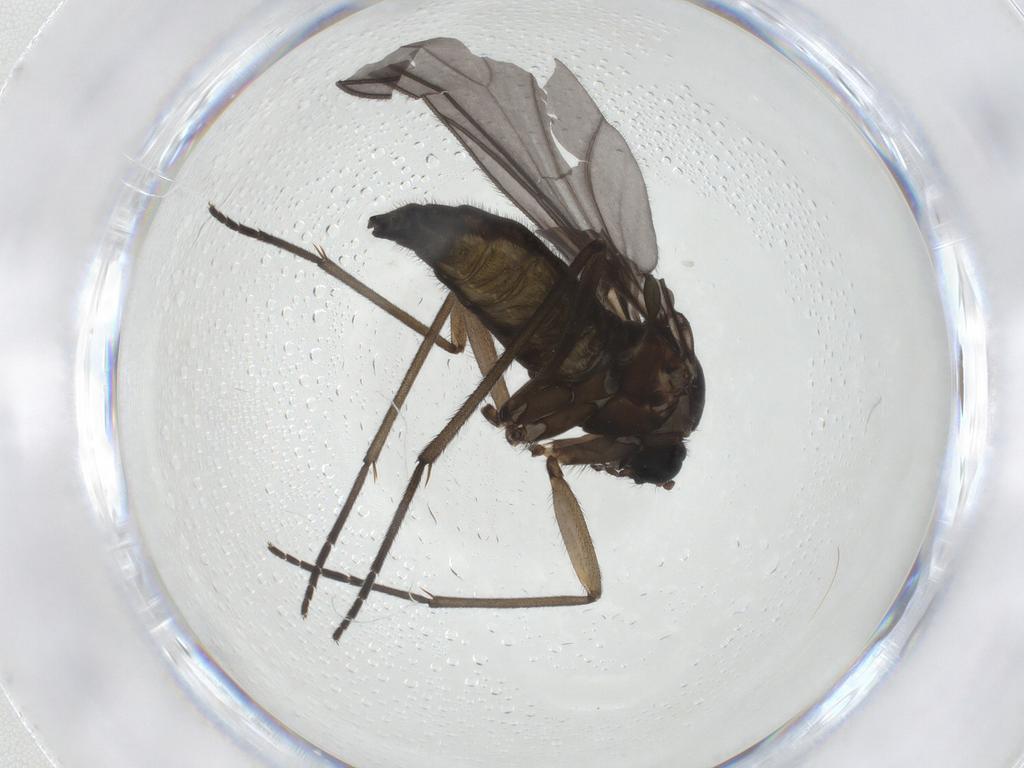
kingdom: Animalia
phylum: Arthropoda
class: Insecta
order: Diptera
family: Sciaridae
